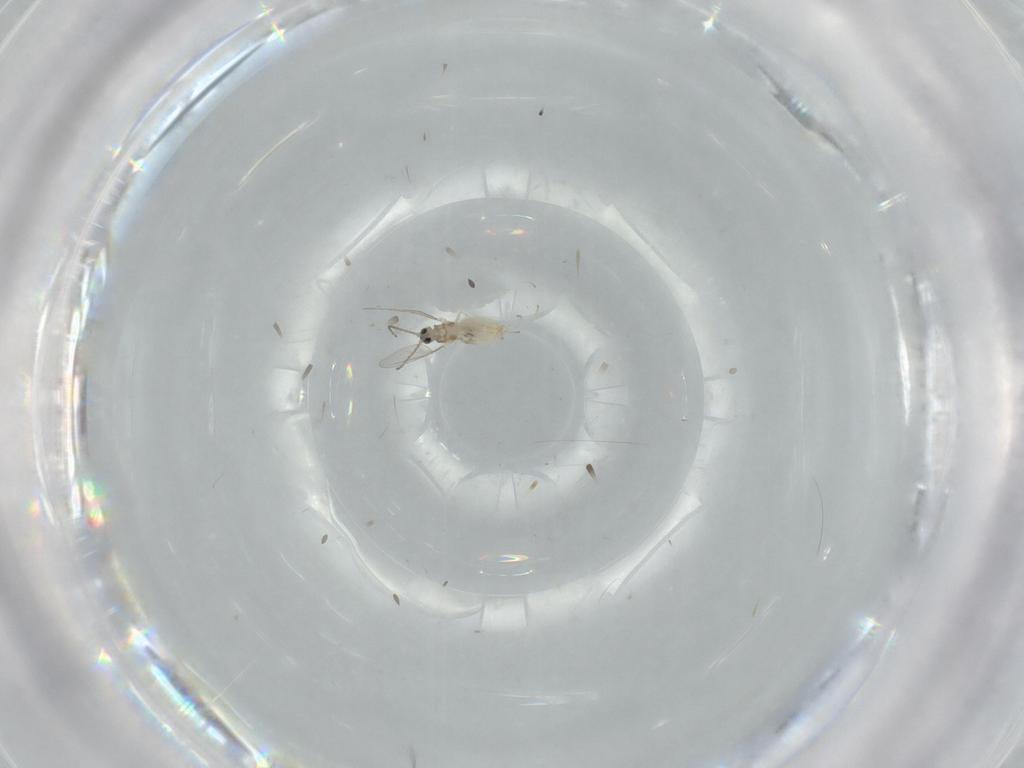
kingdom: Animalia
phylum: Arthropoda
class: Insecta
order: Diptera
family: Cecidomyiidae
